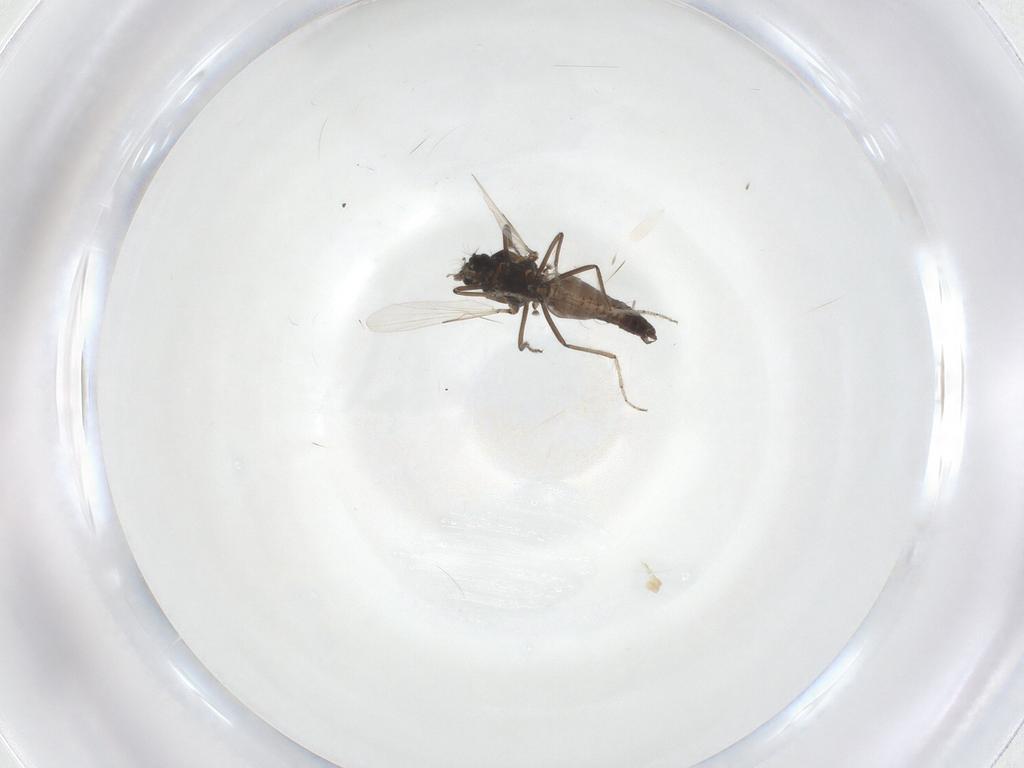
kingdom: Animalia
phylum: Arthropoda
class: Insecta
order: Diptera
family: Ceratopogonidae
